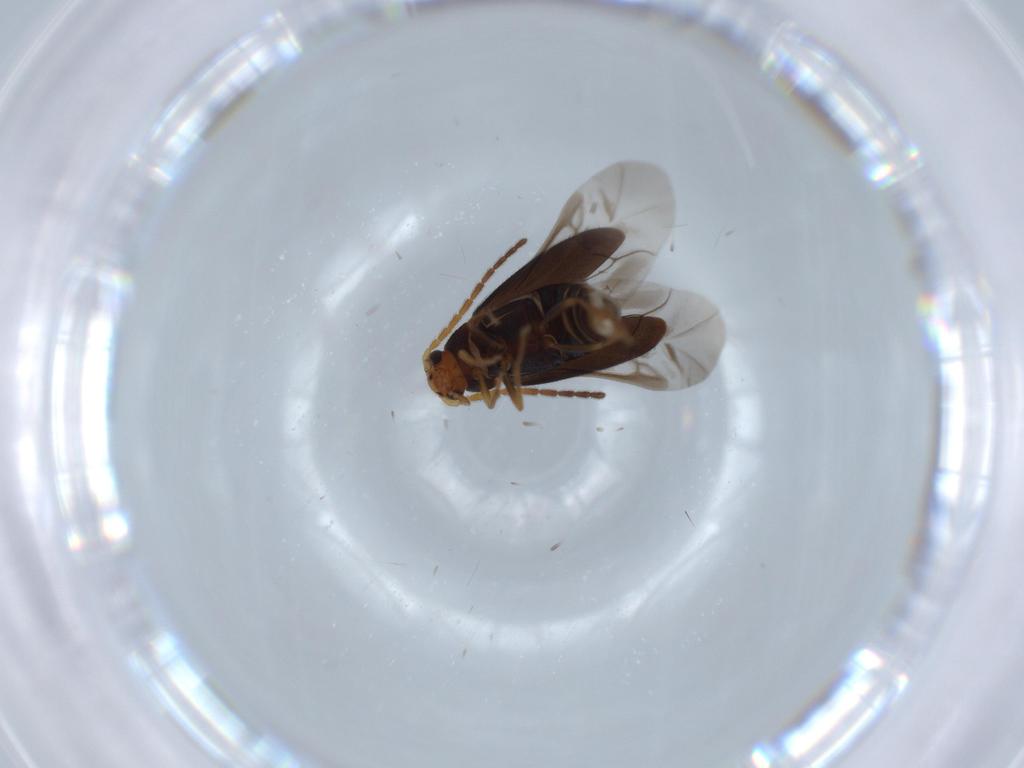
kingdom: Animalia
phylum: Arthropoda
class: Insecta
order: Coleoptera
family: Melandryidae
